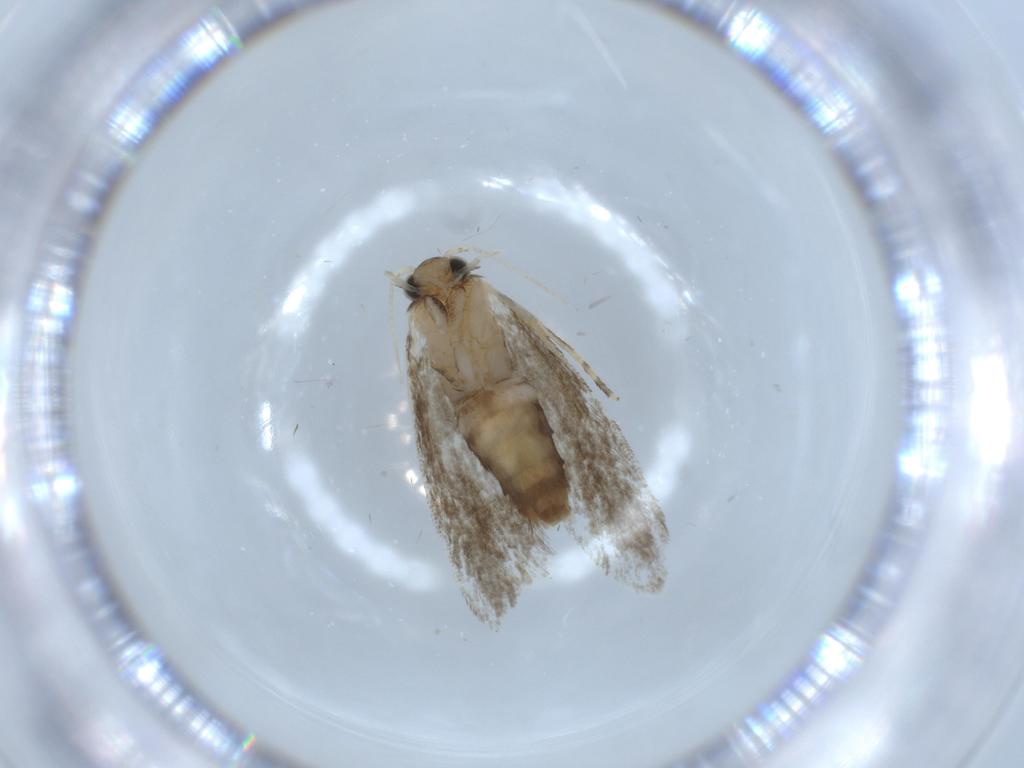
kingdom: Animalia
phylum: Arthropoda
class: Insecta
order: Lepidoptera
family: Tineidae
